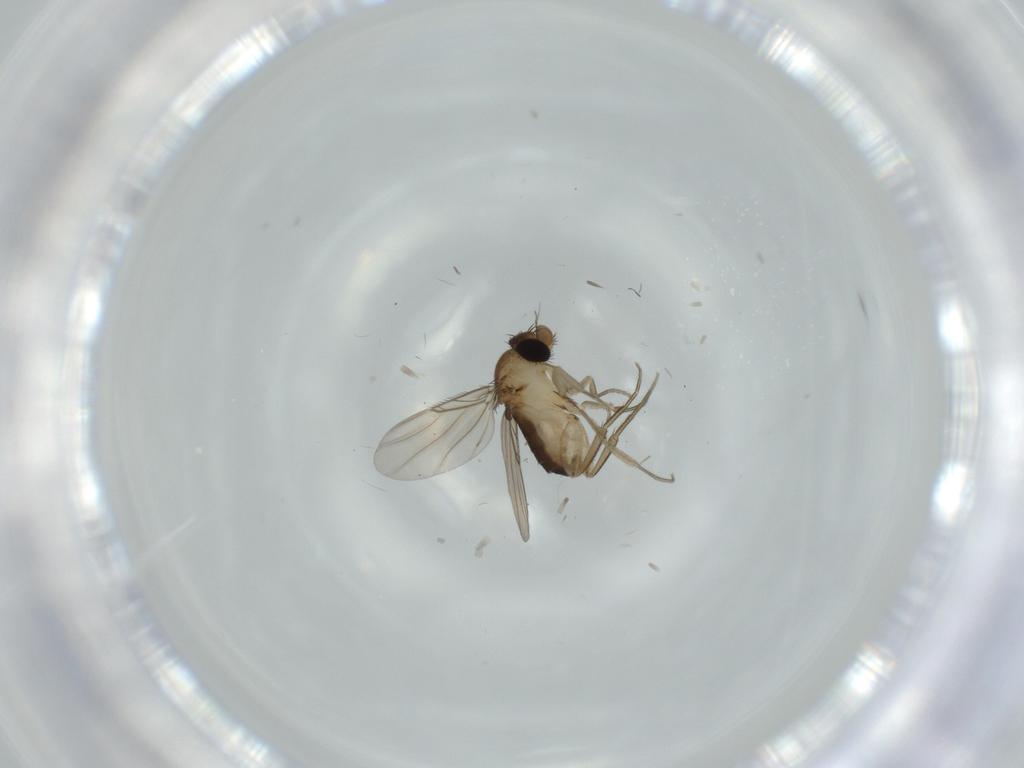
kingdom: Animalia
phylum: Arthropoda
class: Insecta
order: Diptera
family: Phoridae
